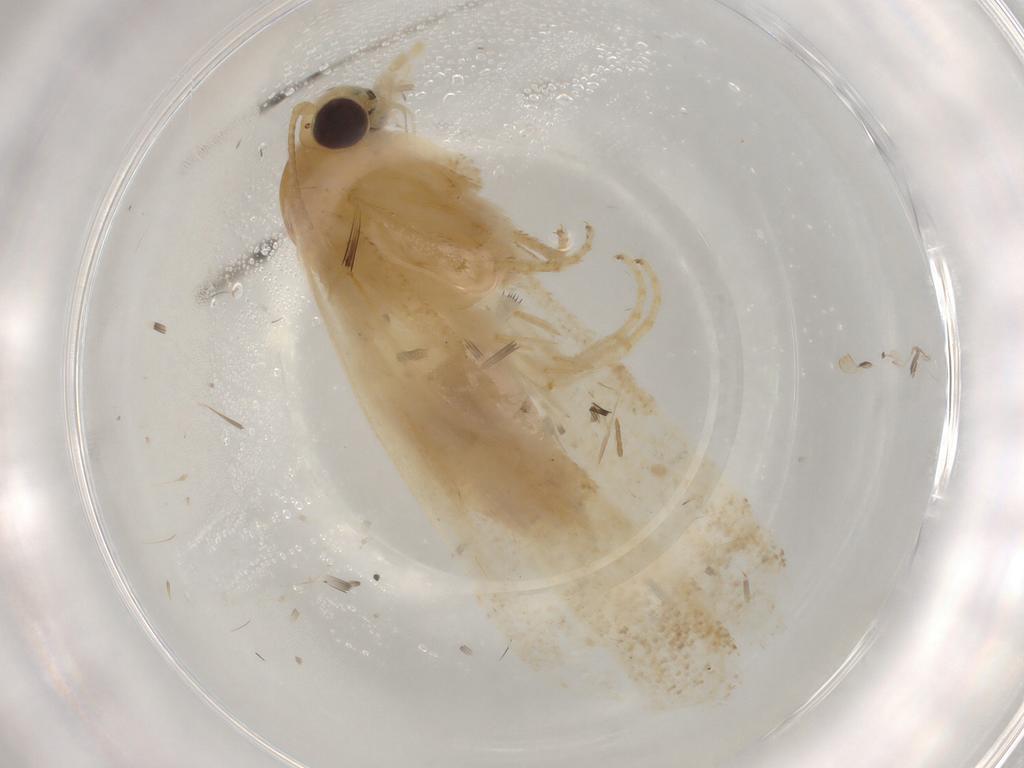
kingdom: Animalia
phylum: Arthropoda
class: Insecta
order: Lepidoptera
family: Tortricidae
